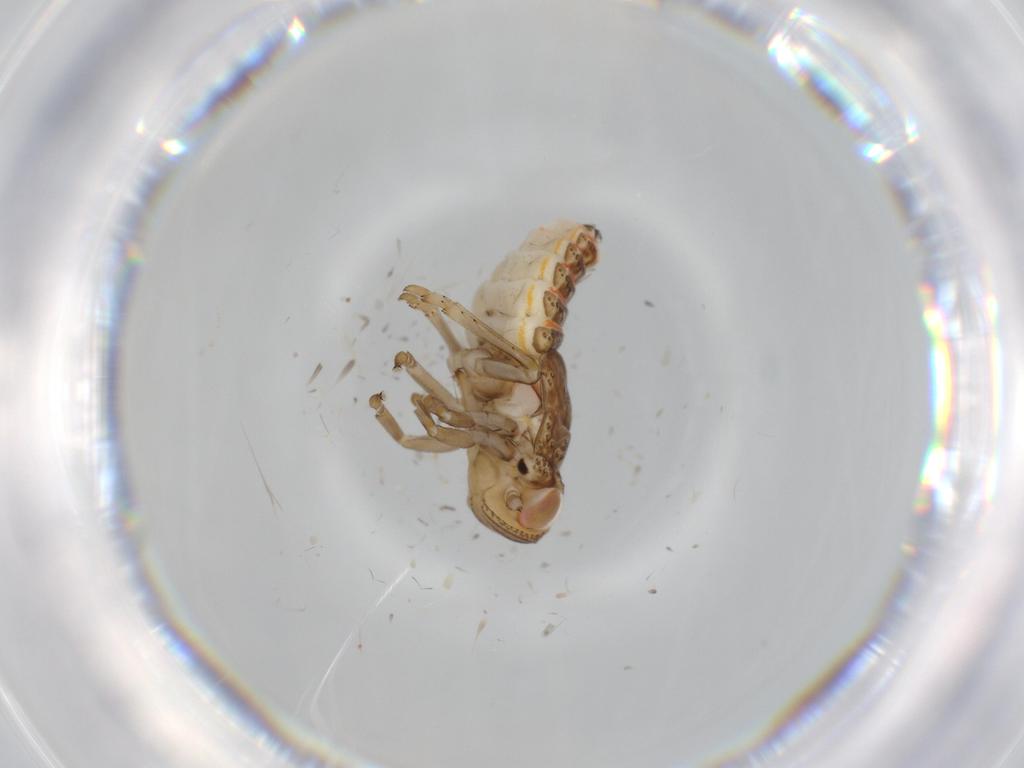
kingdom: Animalia
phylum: Arthropoda
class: Insecta
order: Hemiptera
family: Issidae
